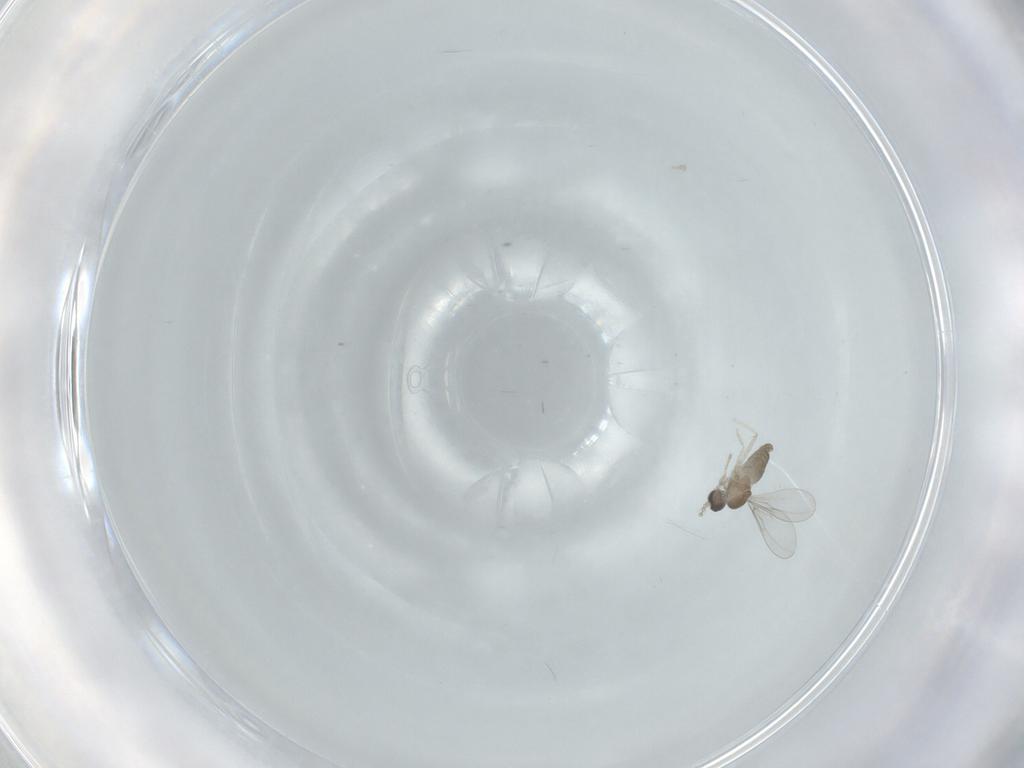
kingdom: Animalia
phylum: Arthropoda
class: Insecta
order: Diptera
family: Cecidomyiidae
